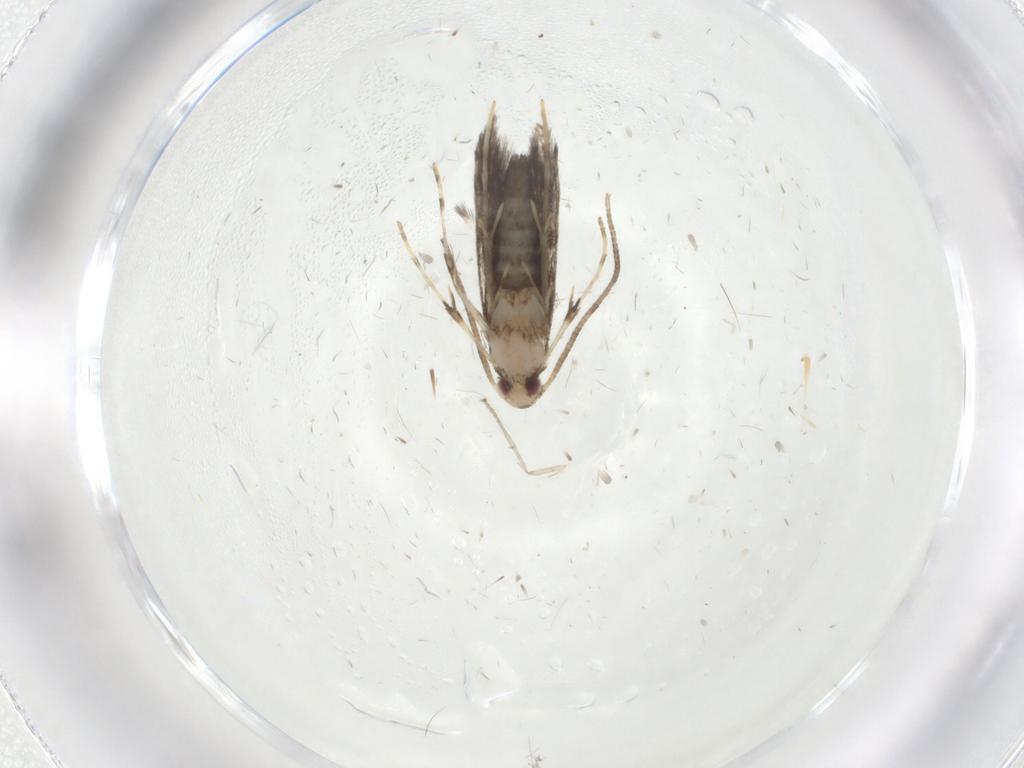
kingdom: Animalia
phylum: Arthropoda
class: Insecta
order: Lepidoptera
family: Gracillariidae
